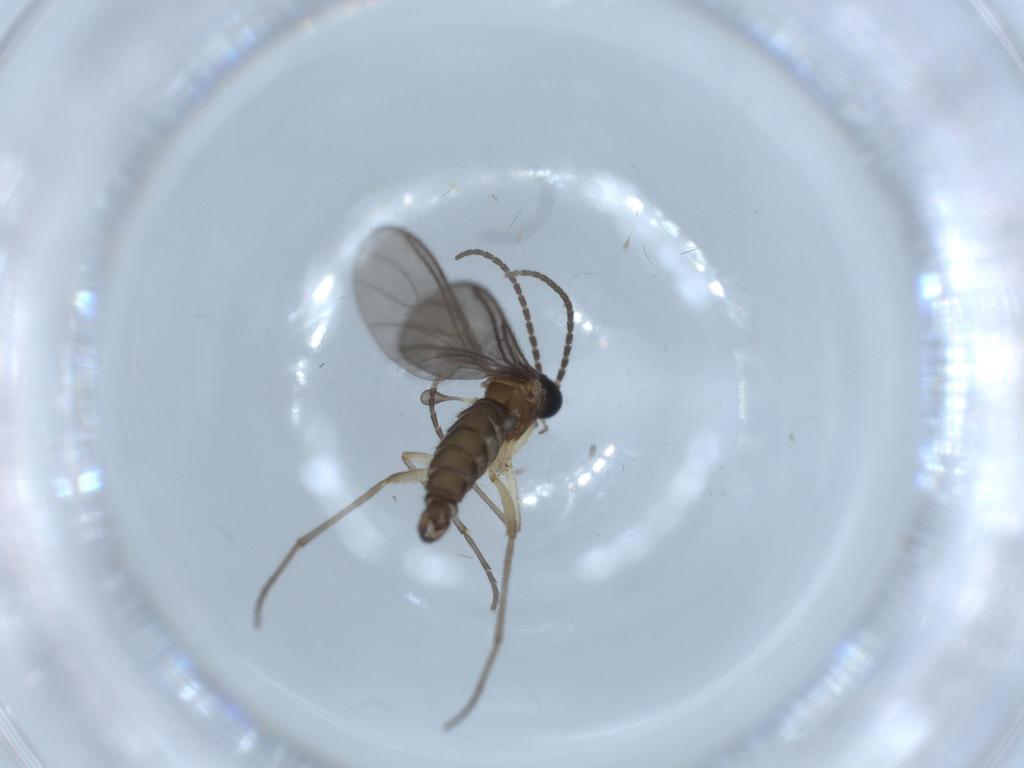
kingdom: Animalia
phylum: Arthropoda
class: Insecta
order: Diptera
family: Sciaridae
